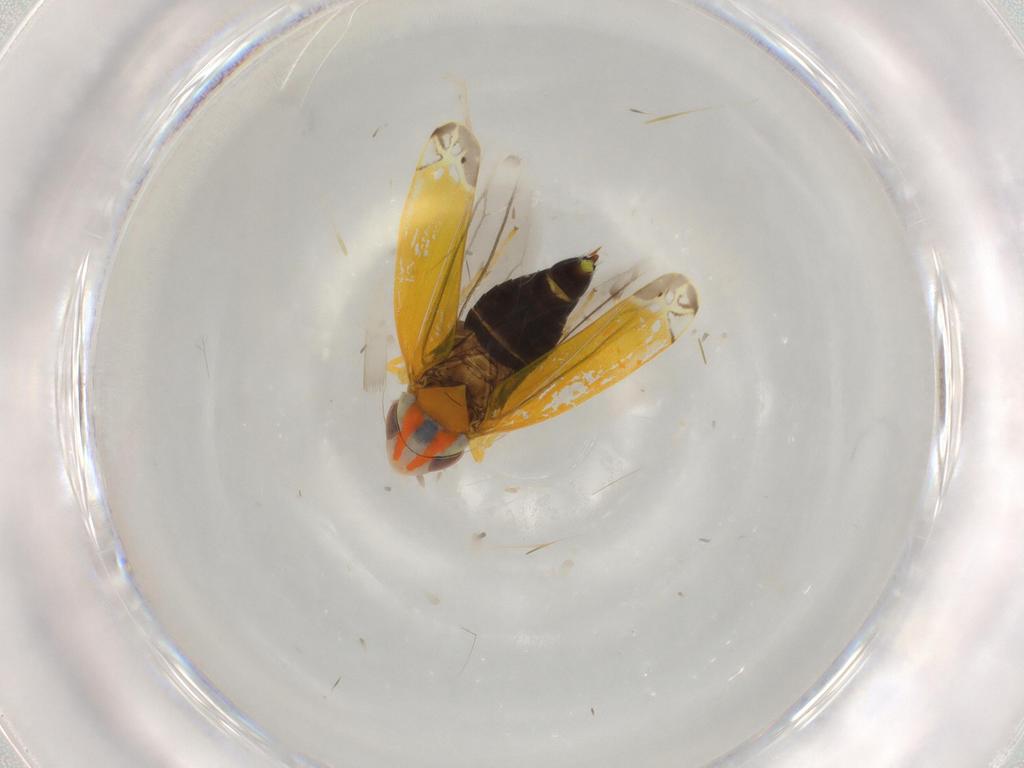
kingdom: Animalia
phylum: Arthropoda
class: Insecta
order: Hemiptera
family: Cicadellidae
